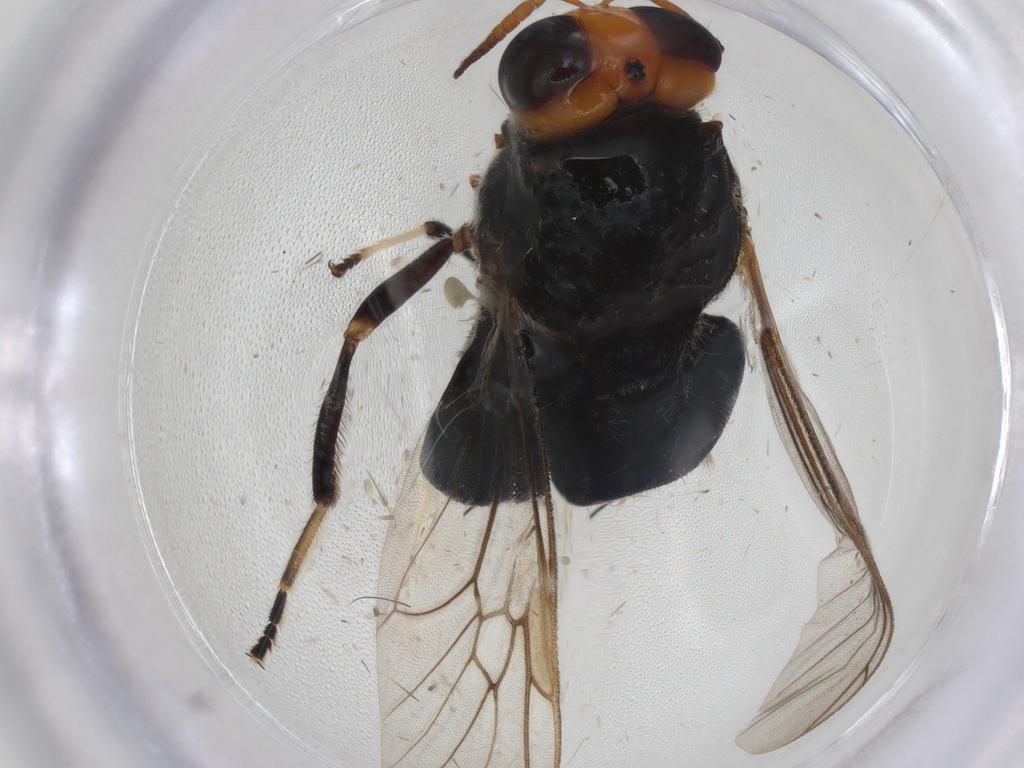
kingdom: Animalia
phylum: Arthropoda
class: Insecta
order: Diptera
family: Stratiomyidae
